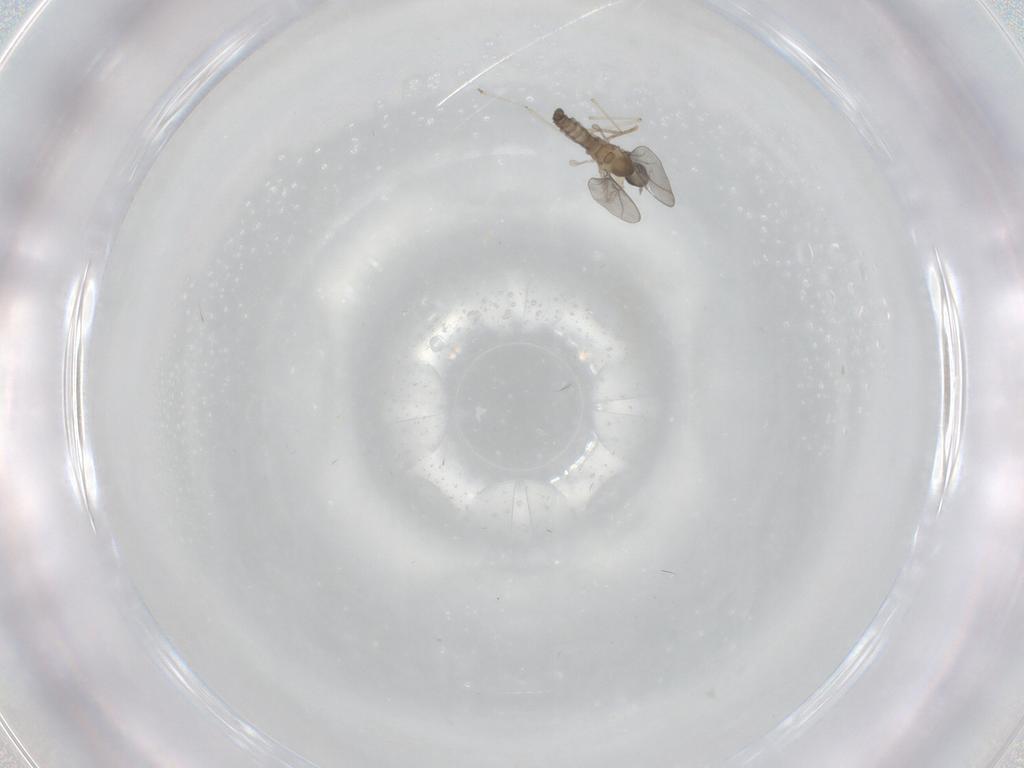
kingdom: Animalia
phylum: Arthropoda
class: Insecta
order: Diptera
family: Cecidomyiidae
